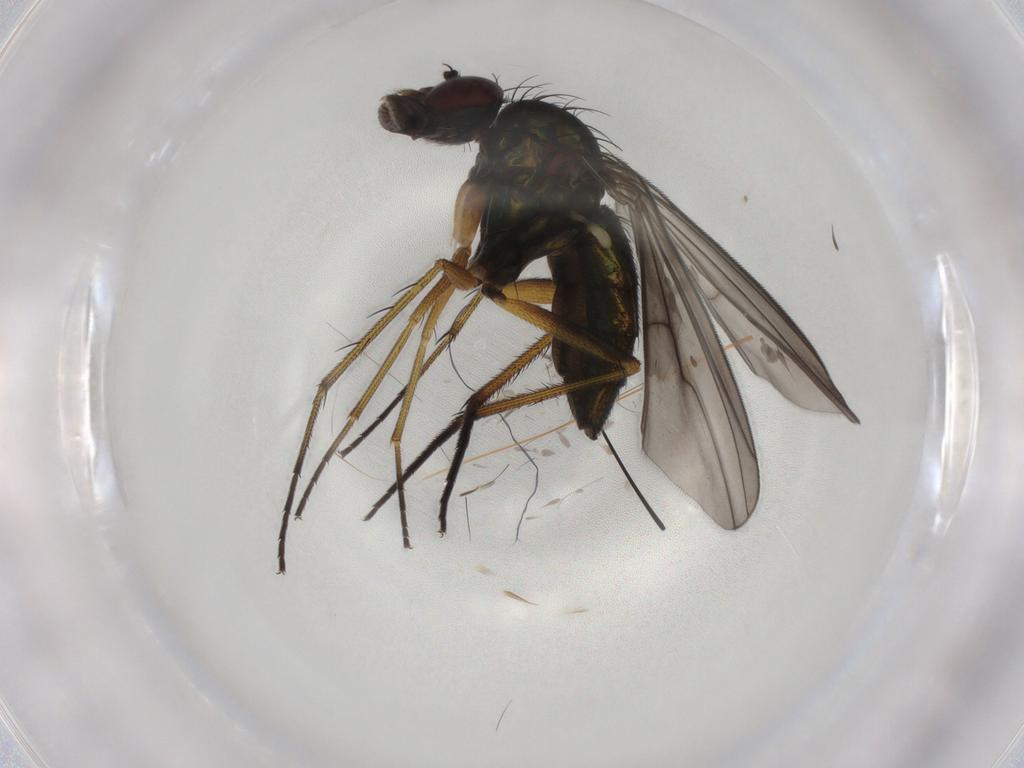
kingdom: Animalia
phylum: Arthropoda
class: Insecta
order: Diptera
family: Dolichopodidae
